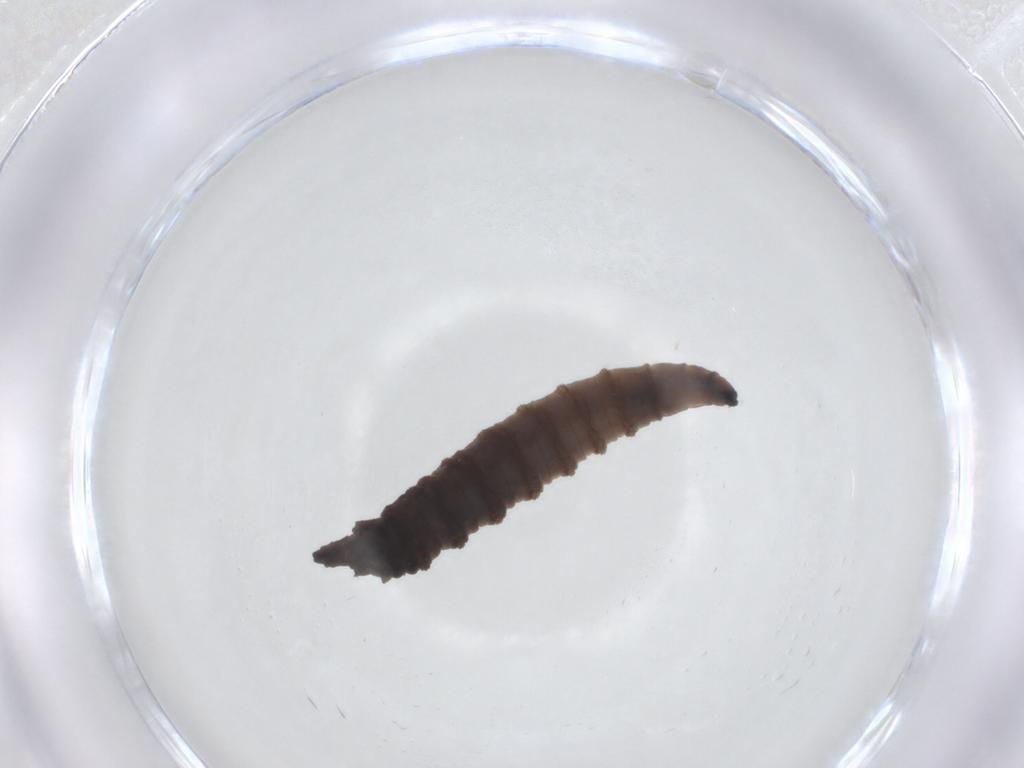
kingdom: Animalia
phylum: Arthropoda
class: Insecta
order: Diptera
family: Drosophilidae
